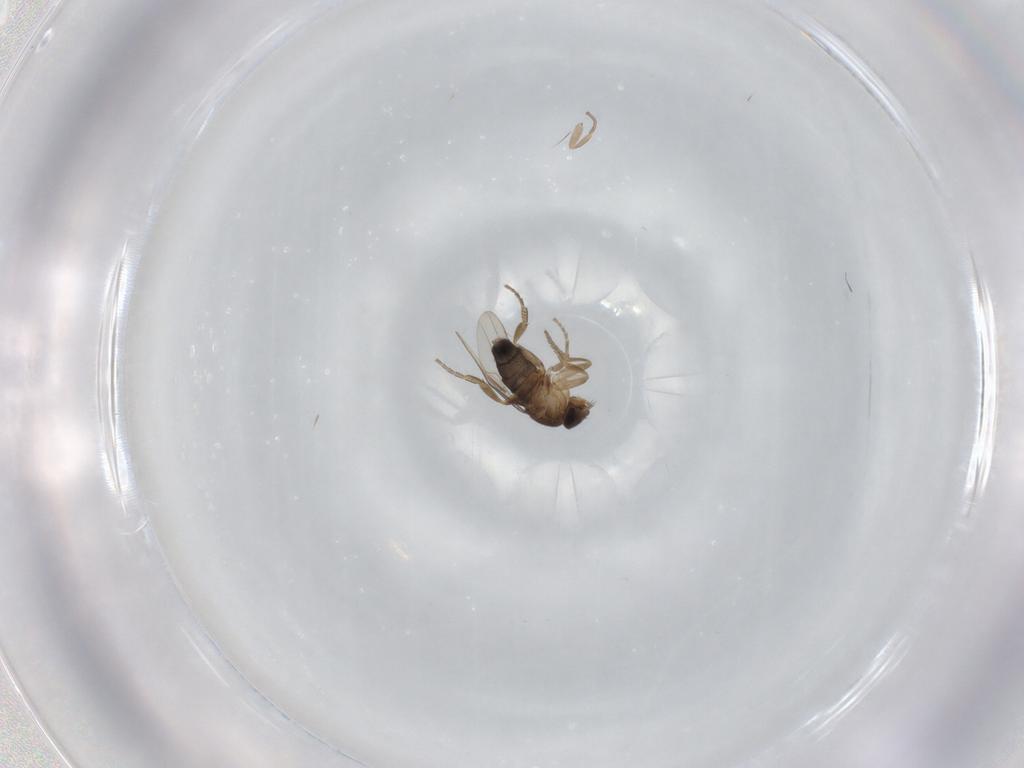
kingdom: Animalia
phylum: Arthropoda
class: Insecta
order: Diptera
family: Phoridae
